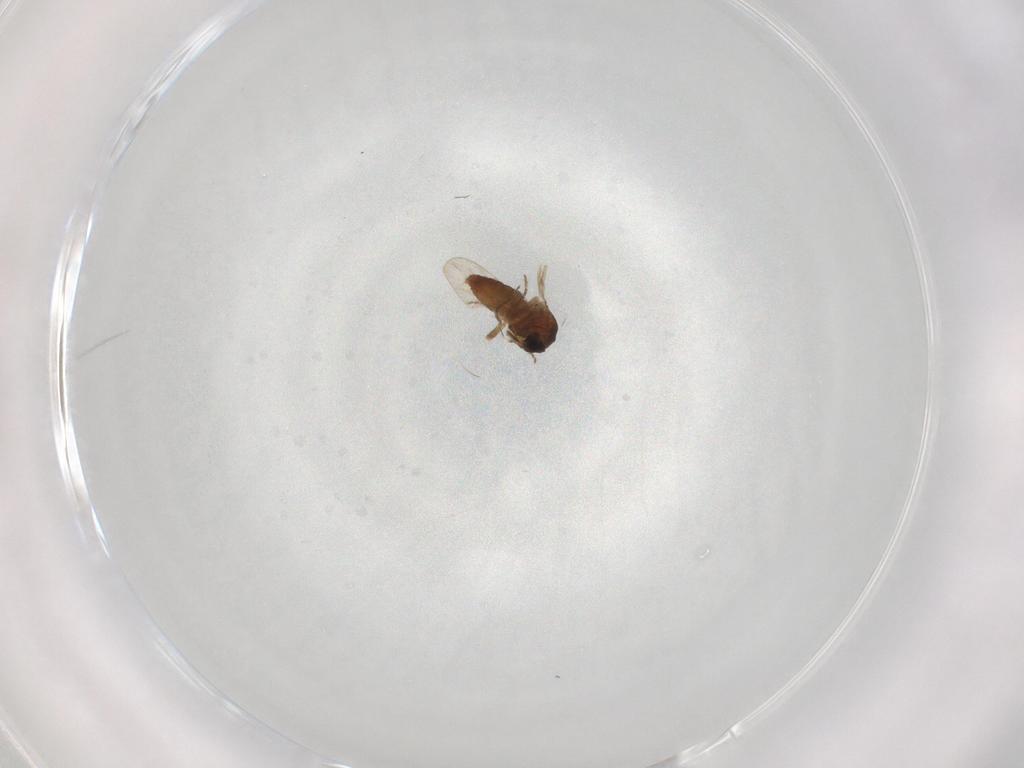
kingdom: Animalia
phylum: Arthropoda
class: Insecta
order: Diptera
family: Ceratopogonidae
